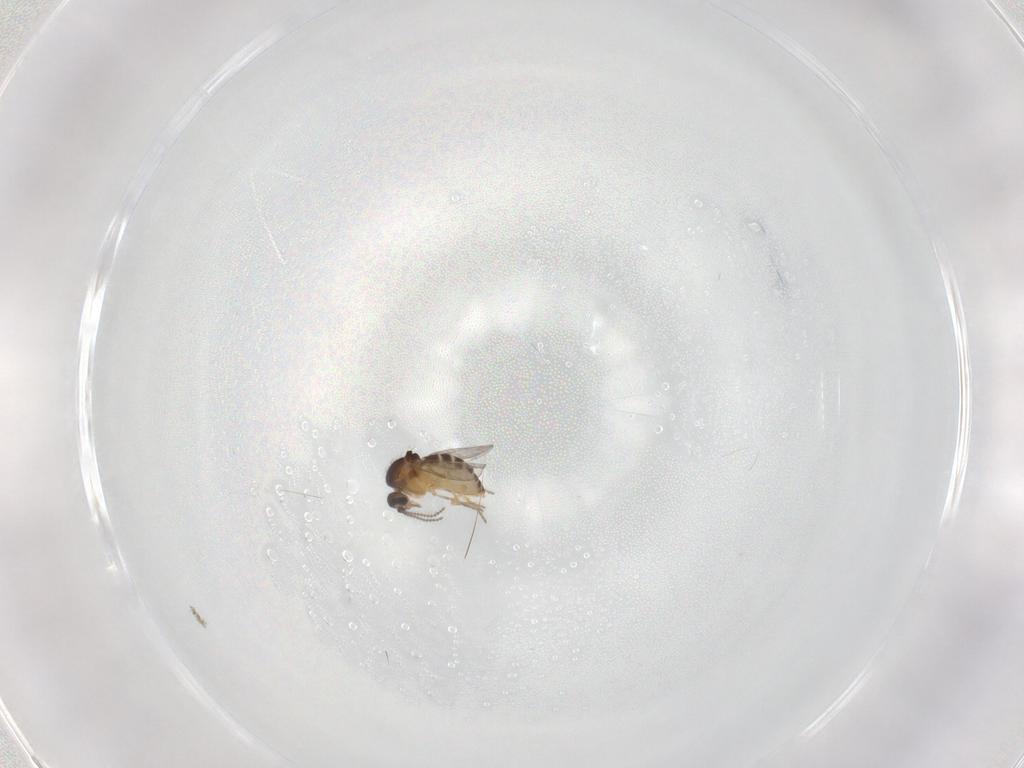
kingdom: Animalia
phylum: Arthropoda
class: Insecta
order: Diptera
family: Ceratopogonidae
